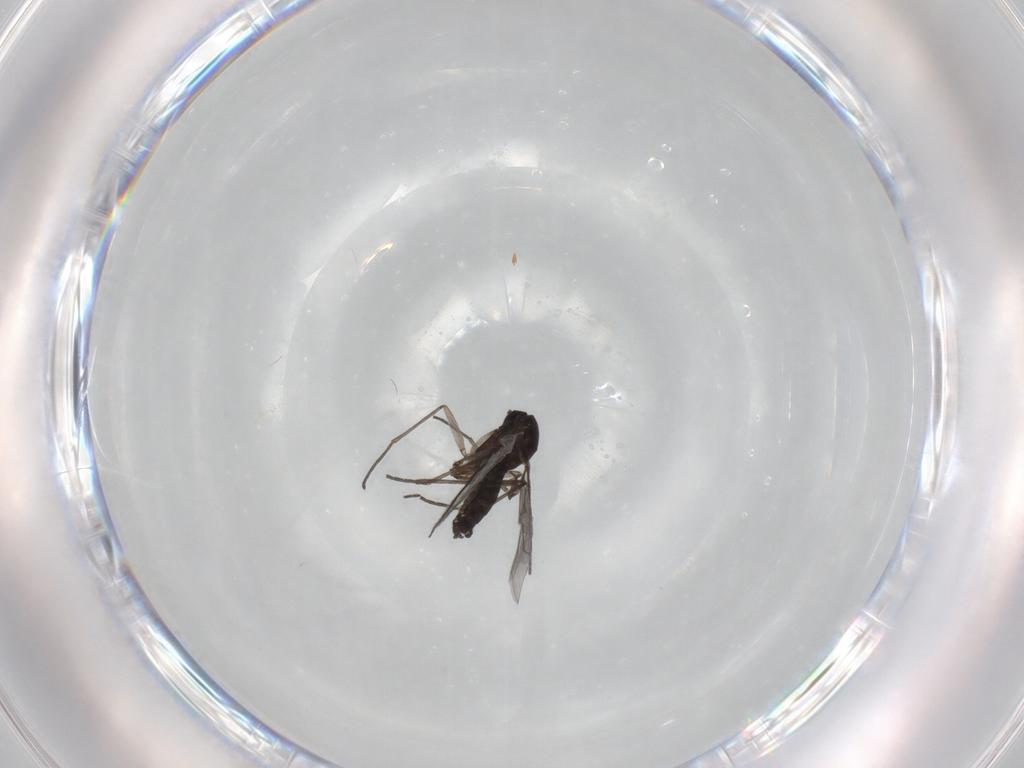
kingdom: Animalia
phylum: Arthropoda
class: Insecta
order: Diptera
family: Sciaridae
